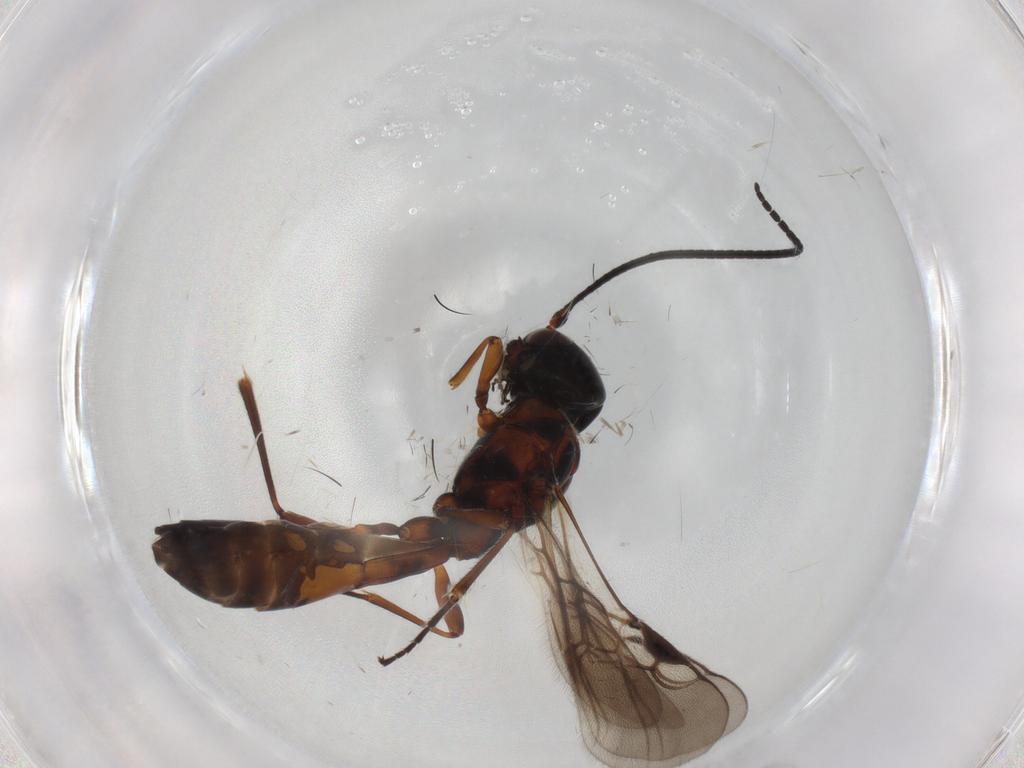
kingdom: Animalia
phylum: Arthropoda
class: Insecta
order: Hymenoptera
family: Braconidae
